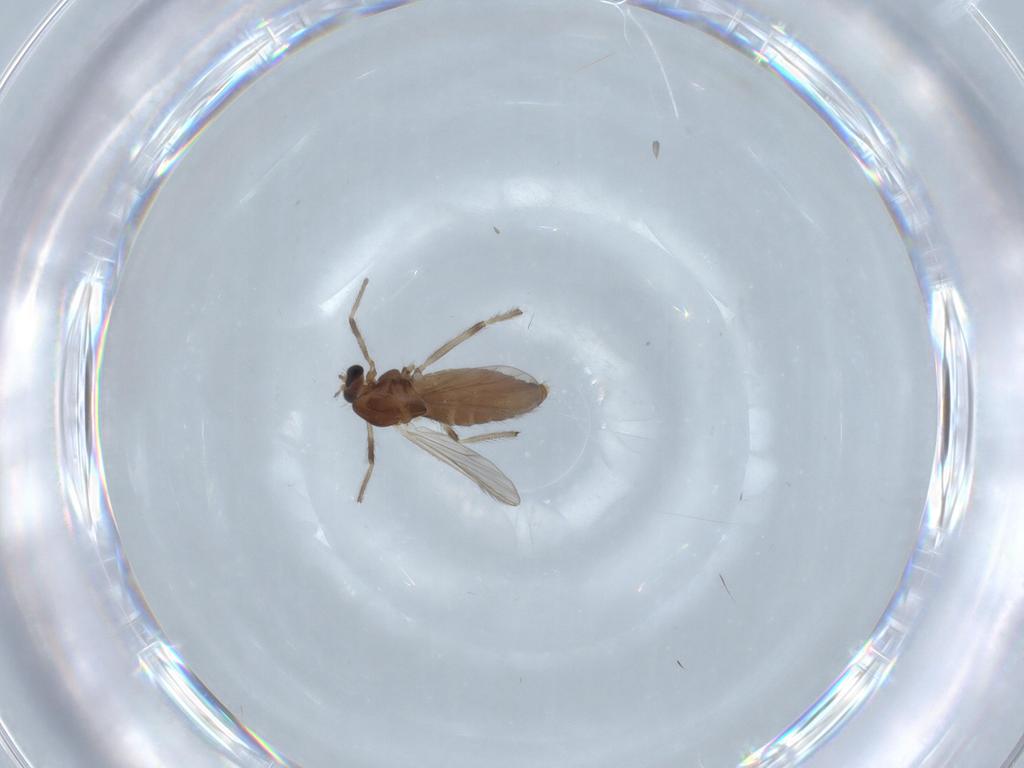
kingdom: Animalia
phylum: Arthropoda
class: Insecta
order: Diptera
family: Chironomidae
